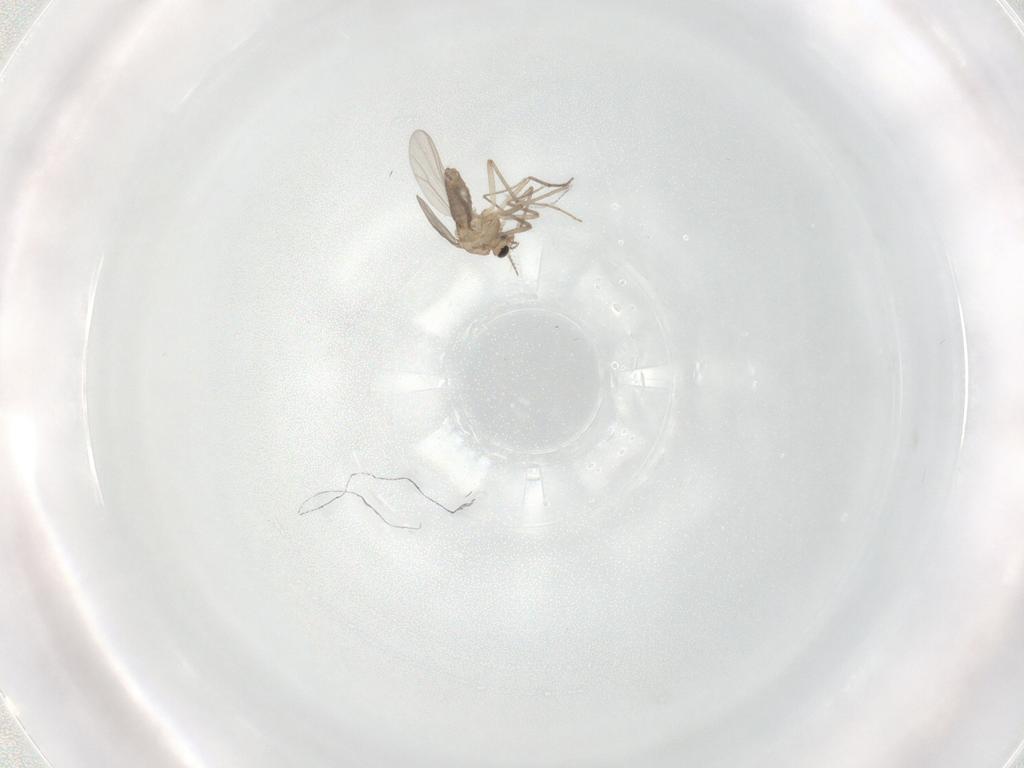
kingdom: Animalia
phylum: Arthropoda
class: Insecta
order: Diptera
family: Chironomidae
